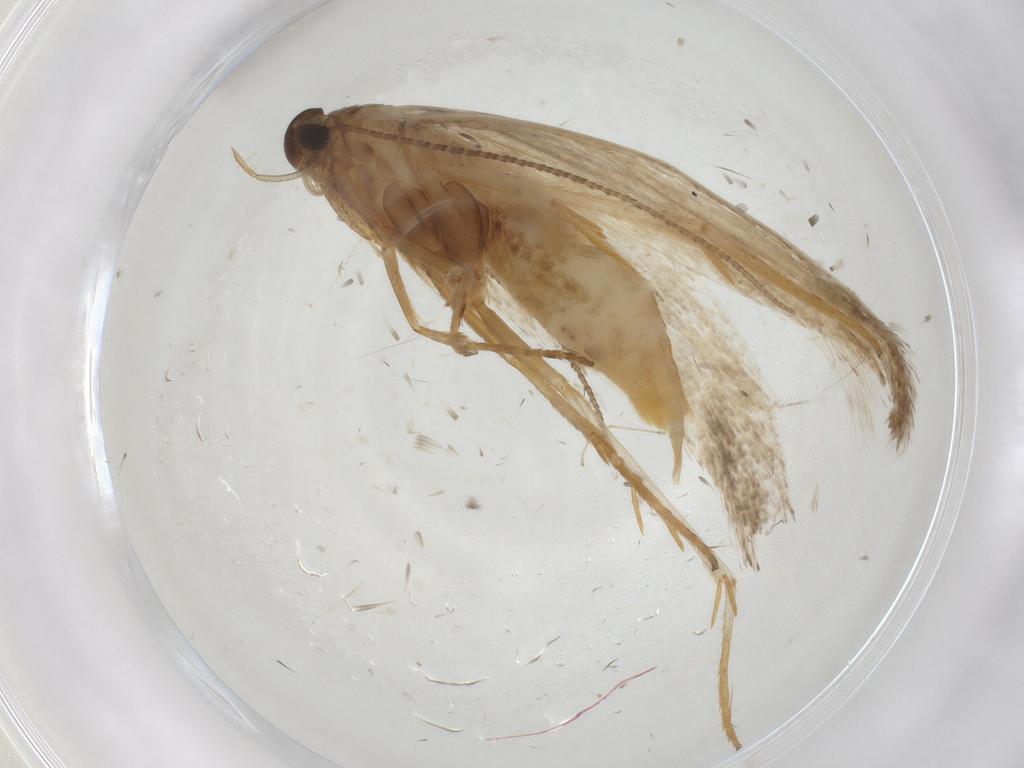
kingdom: Animalia
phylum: Arthropoda
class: Insecta
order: Lepidoptera
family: Erebidae
